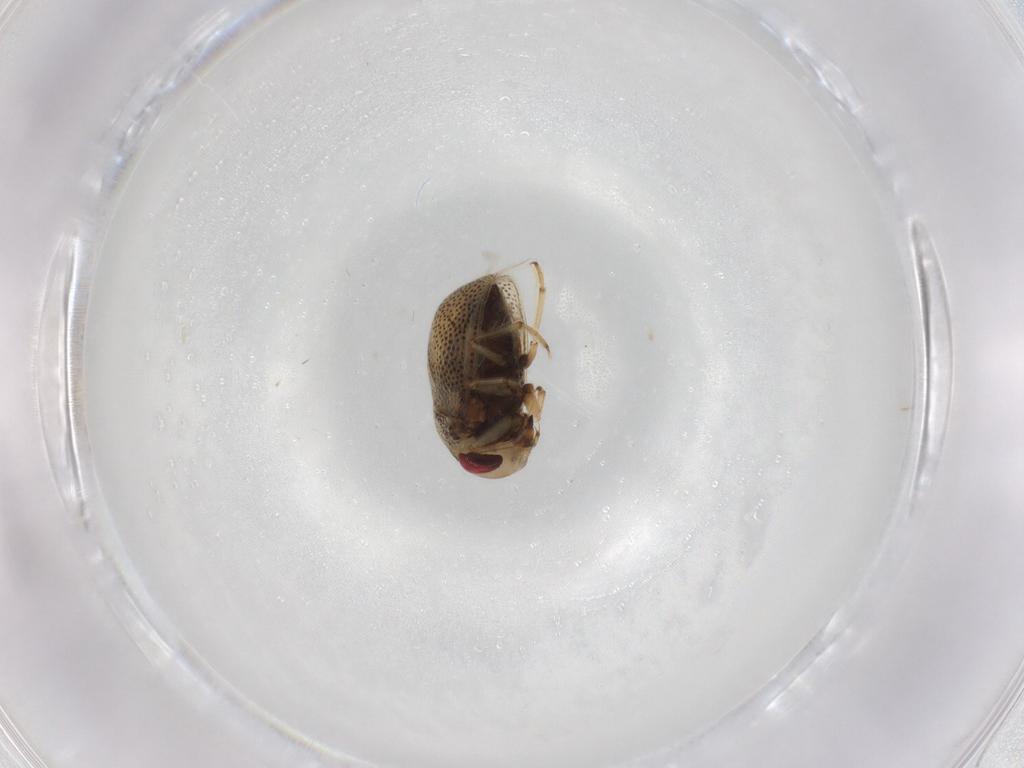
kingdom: Animalia
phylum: Arthropoda
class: Insecta
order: Hemiptera
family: Pleidae
